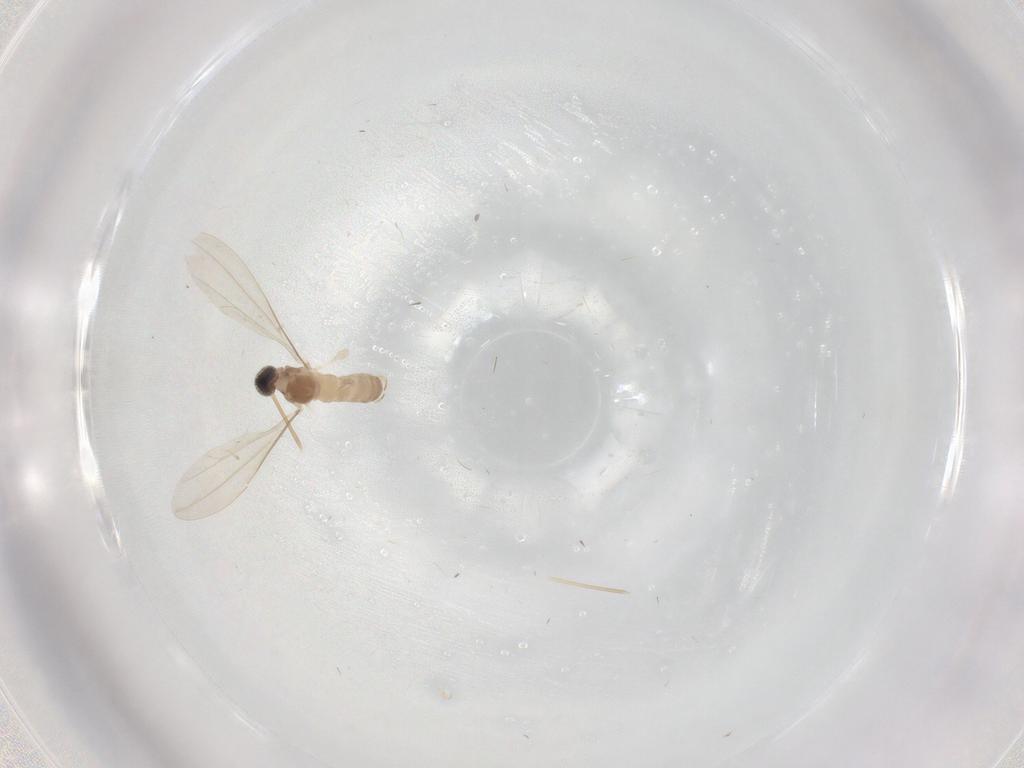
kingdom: Animalia
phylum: Arthropoda
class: Insecta
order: Diptera
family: Cecidomyiidae
